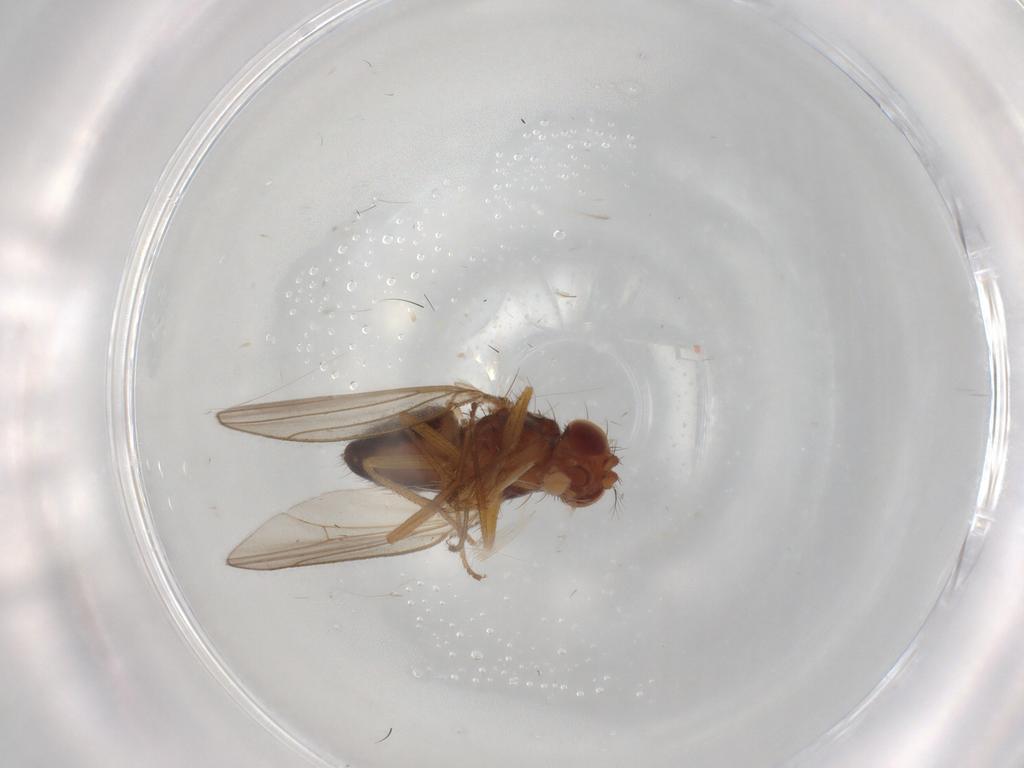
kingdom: Animalia
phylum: Arthropoda
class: Insecta
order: Diptera
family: Drosophilidae
